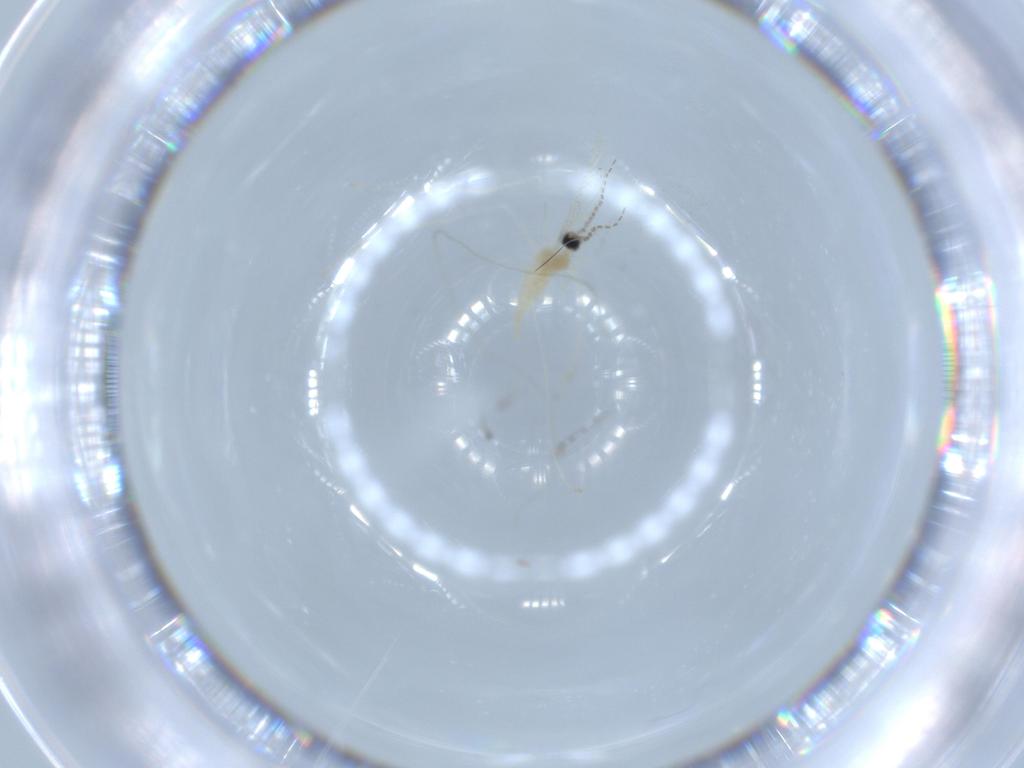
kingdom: Animalia
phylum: Arthropoda
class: Insecta
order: Diptera
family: Cecidomyiidae
